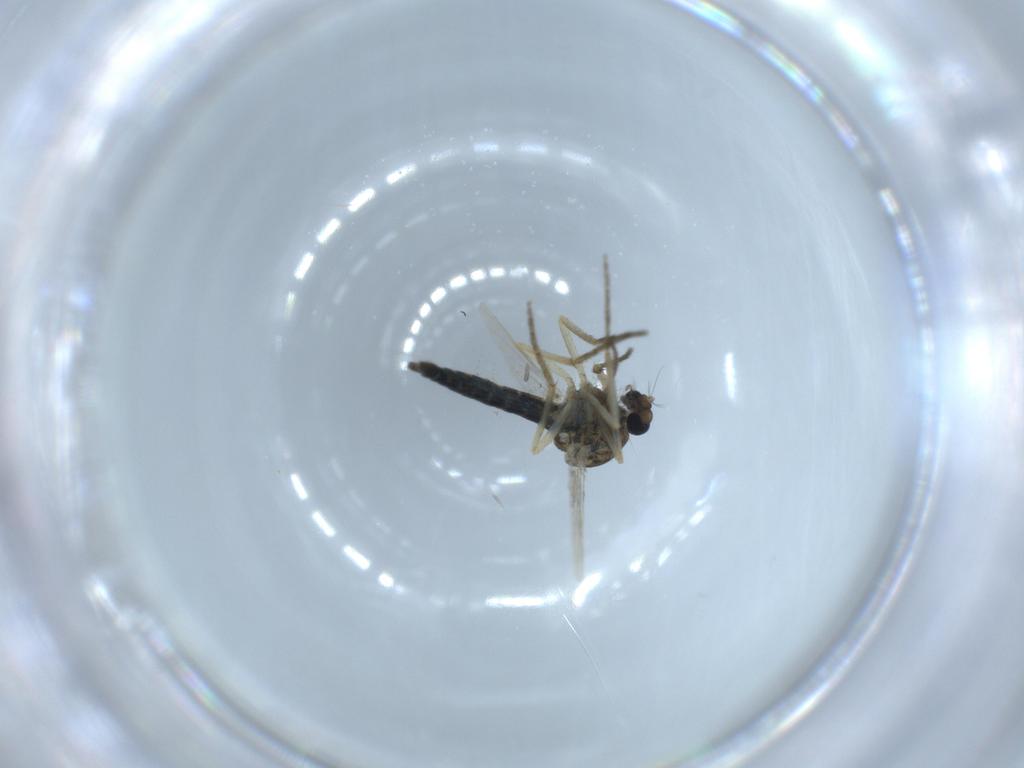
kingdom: Animalia
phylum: Arthropoda
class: Insecta
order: Diptera
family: Ceratopogonidae
